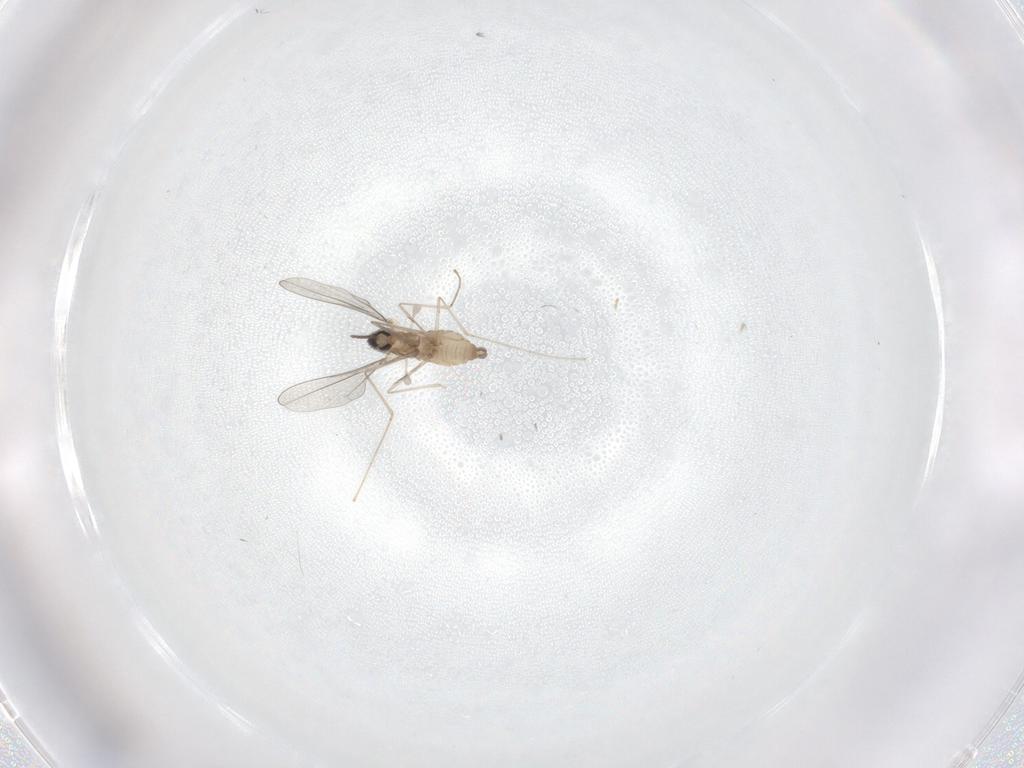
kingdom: Animalia
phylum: Arthropoda
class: Insecta
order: Diptera
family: Cecidomyiidae
